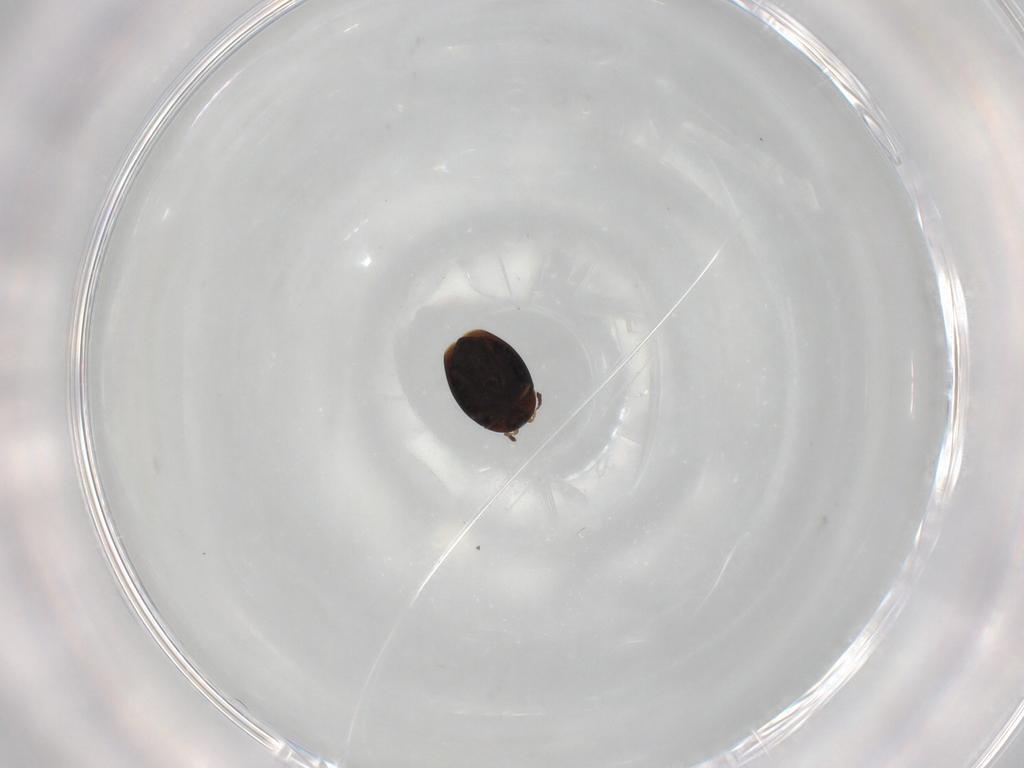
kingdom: Animalia
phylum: Arthropoda
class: Insecta
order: Coleoptera
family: Corylophidae
